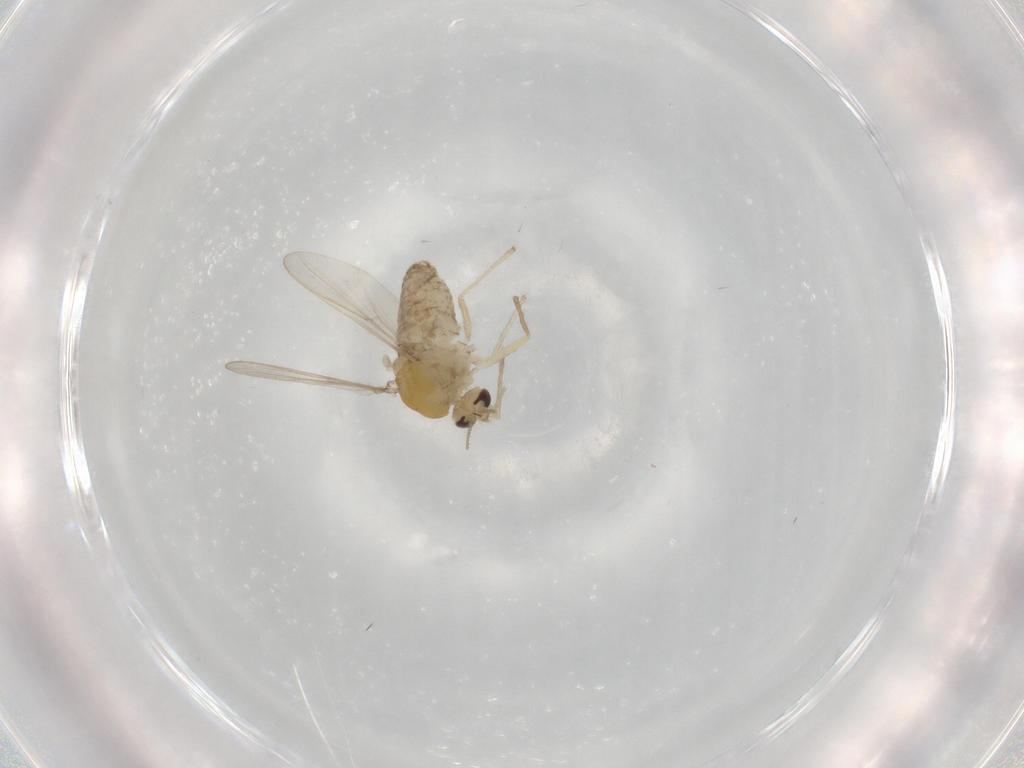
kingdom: Animalia
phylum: Arthropoda
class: Insecta
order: Diptera
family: Chironomidae
